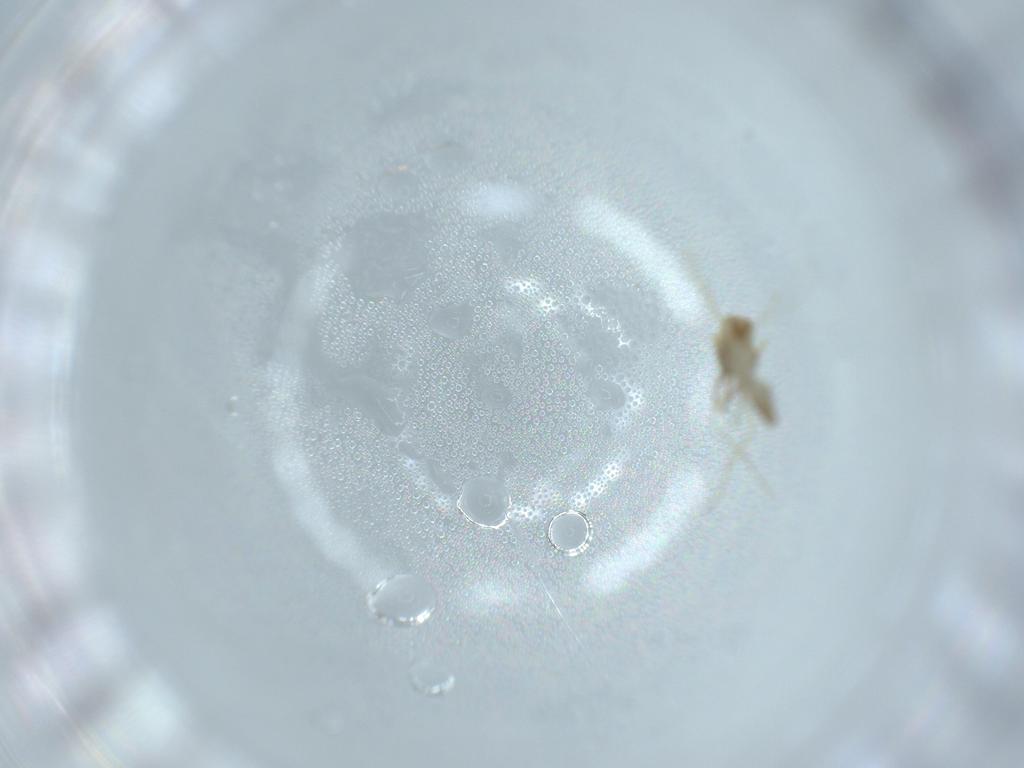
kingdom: Animalia
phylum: Arthropoda
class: Insecta
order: Diptera
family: Ceratopogonidae
